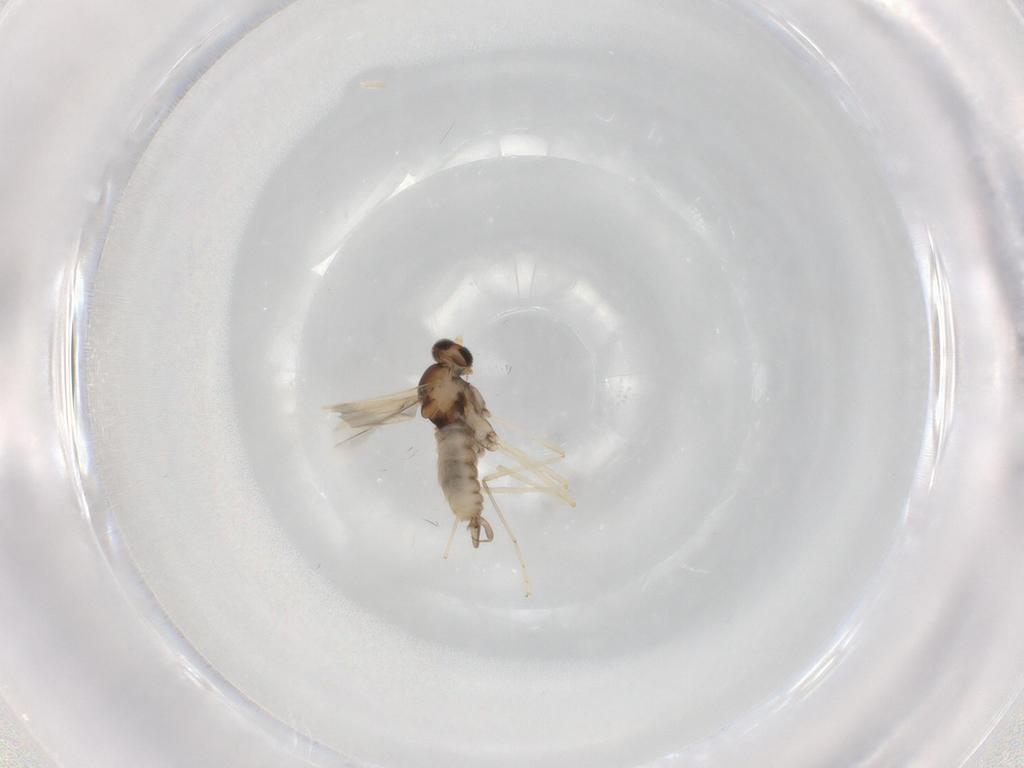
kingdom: Animalia
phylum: Arthropoda
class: Insecta
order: Diptera
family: Cecidomyiidae
